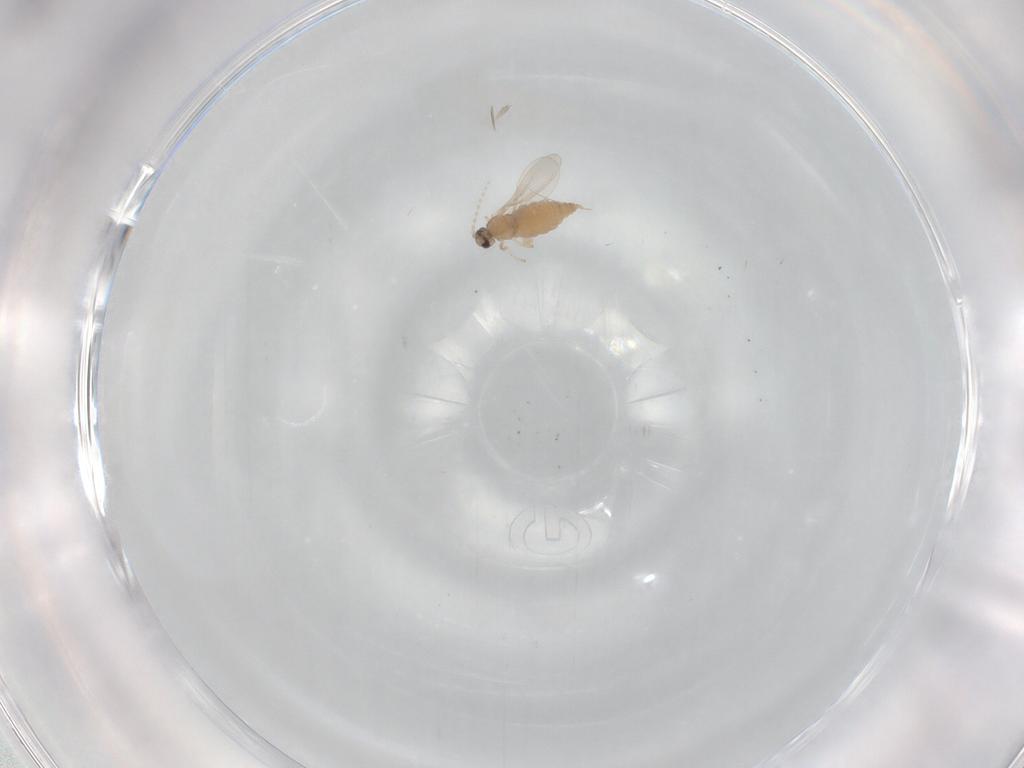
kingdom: Animalia
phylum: Arthropoda
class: Insecta
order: Diptera
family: Cecidomyiidae
